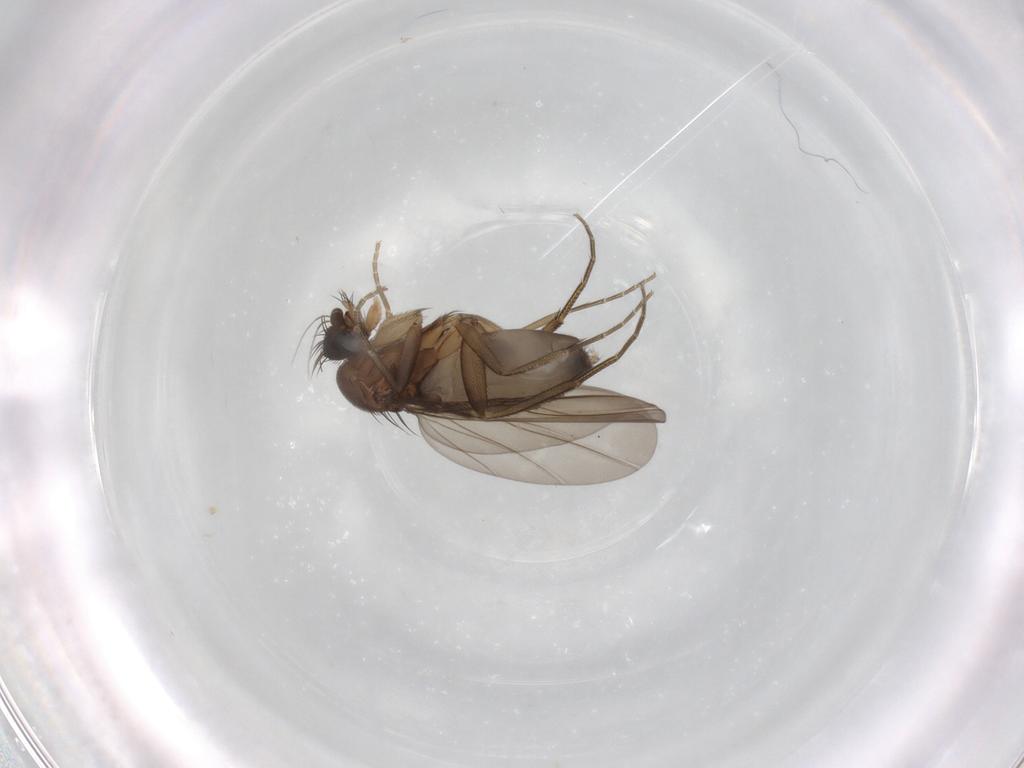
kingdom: Animalia
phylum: Arthropoda
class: Insecta
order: Diptera
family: Phoridae
